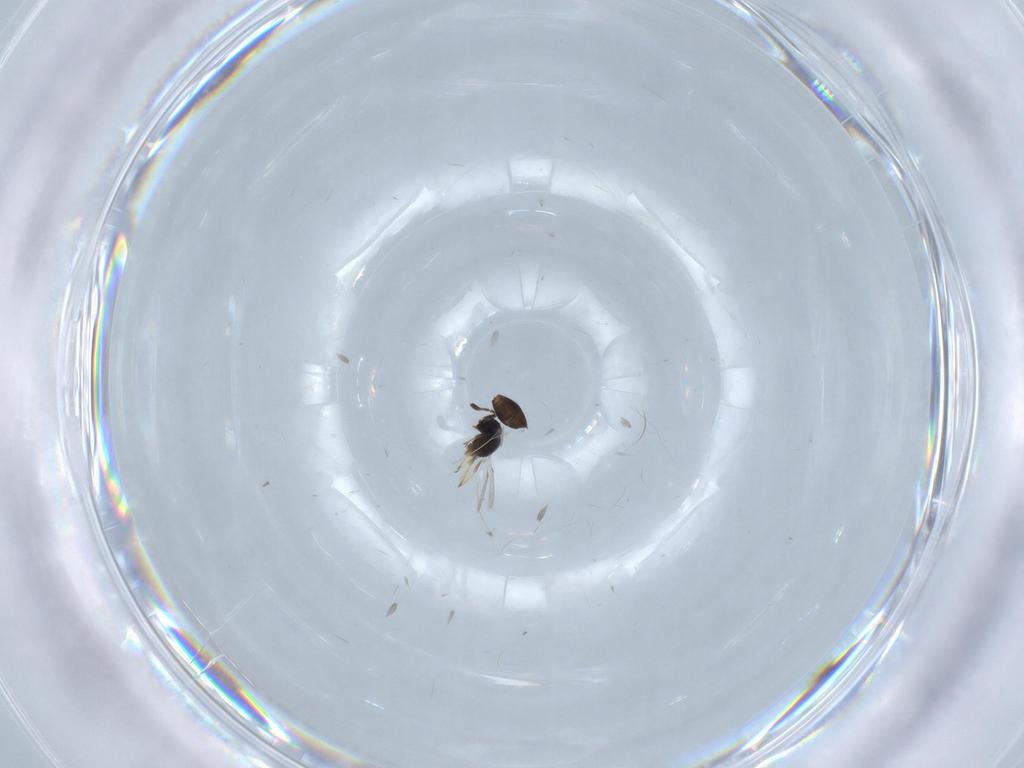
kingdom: Animalia
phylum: Arthropoda
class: Insecta
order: Hymenoptera
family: Scelionidae
